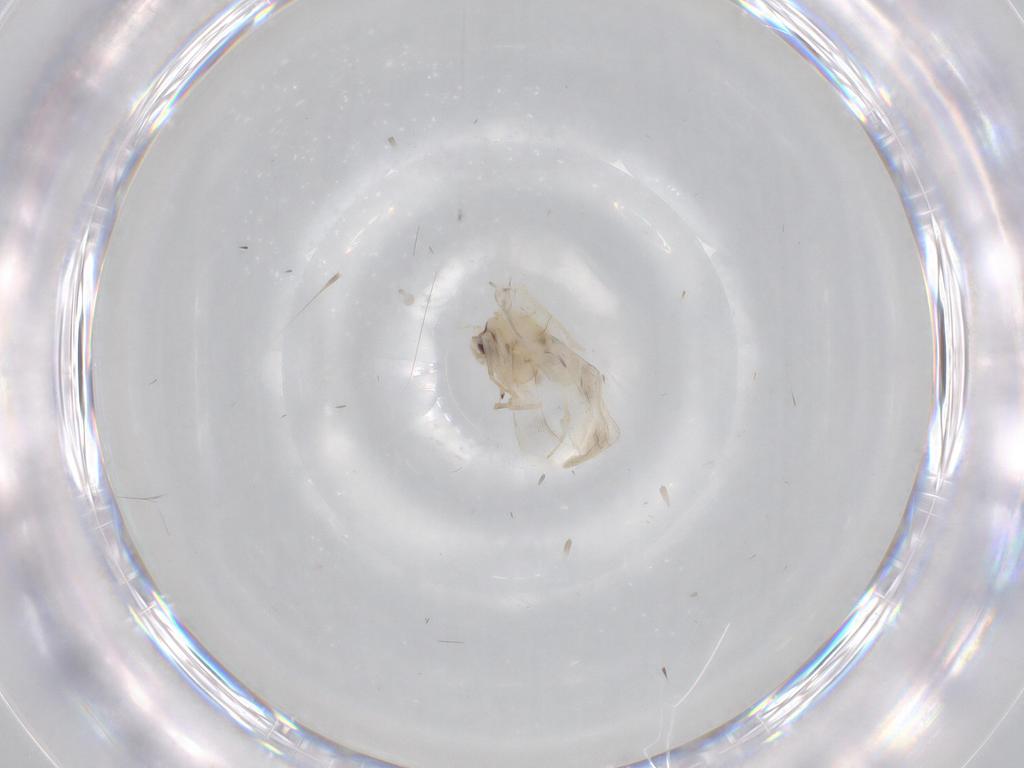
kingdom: Animalia
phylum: Arthropoda
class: Insecta
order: Hemiptera
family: Aleyrodidae
